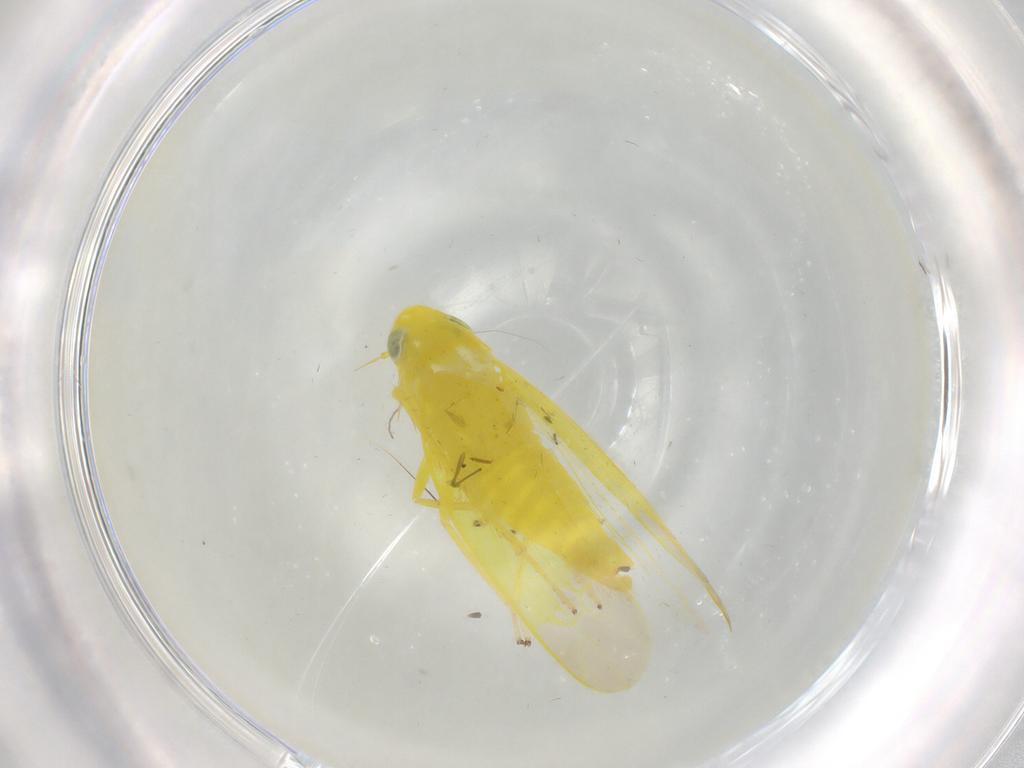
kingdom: Animalia
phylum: Arthropoda
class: Insecta
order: Hemiptera
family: Cicadellidae
